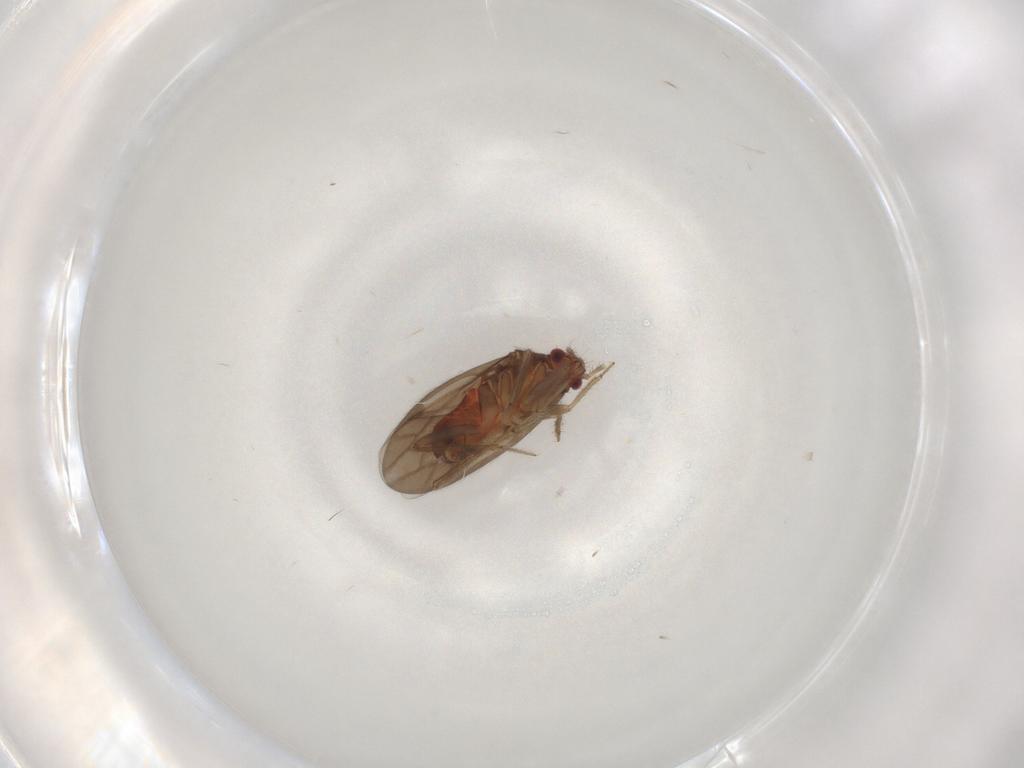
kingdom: Animalia
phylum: Arthropoda
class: Insecta
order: Hemiptera
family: Ceratocombidae
